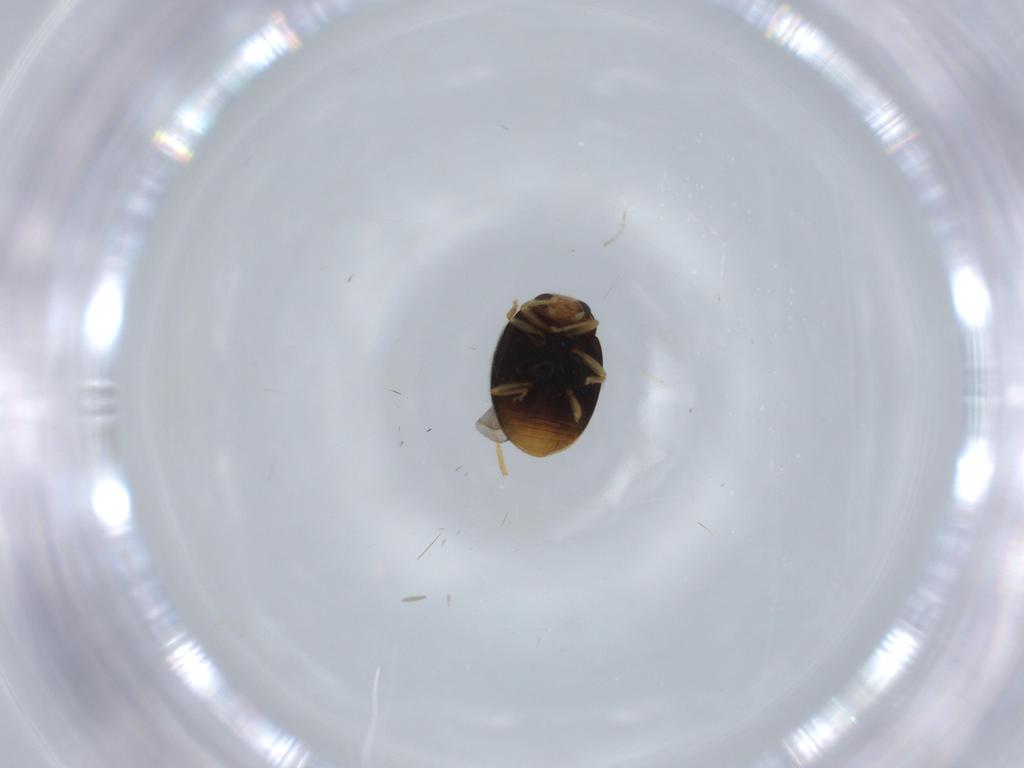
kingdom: Animalia
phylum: Arthropoda
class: Insecta
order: Coleoptera
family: Coccinellidae
